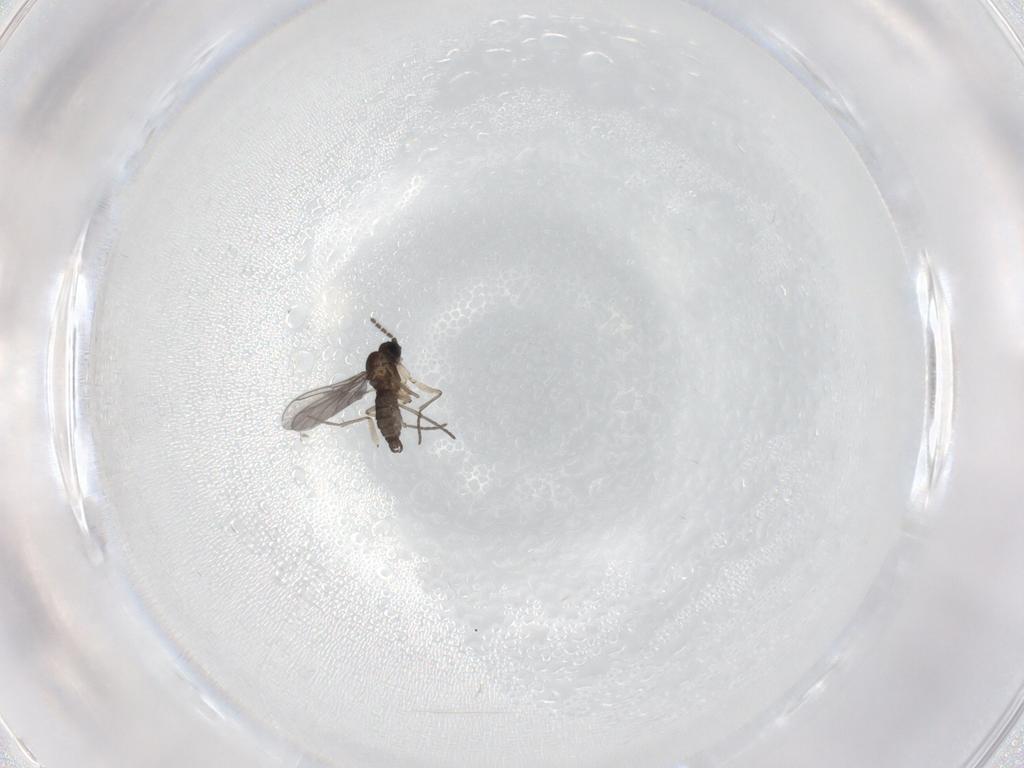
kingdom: Animalia
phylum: Arthropoda
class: Insecta
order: Diptera
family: Sciaridae
